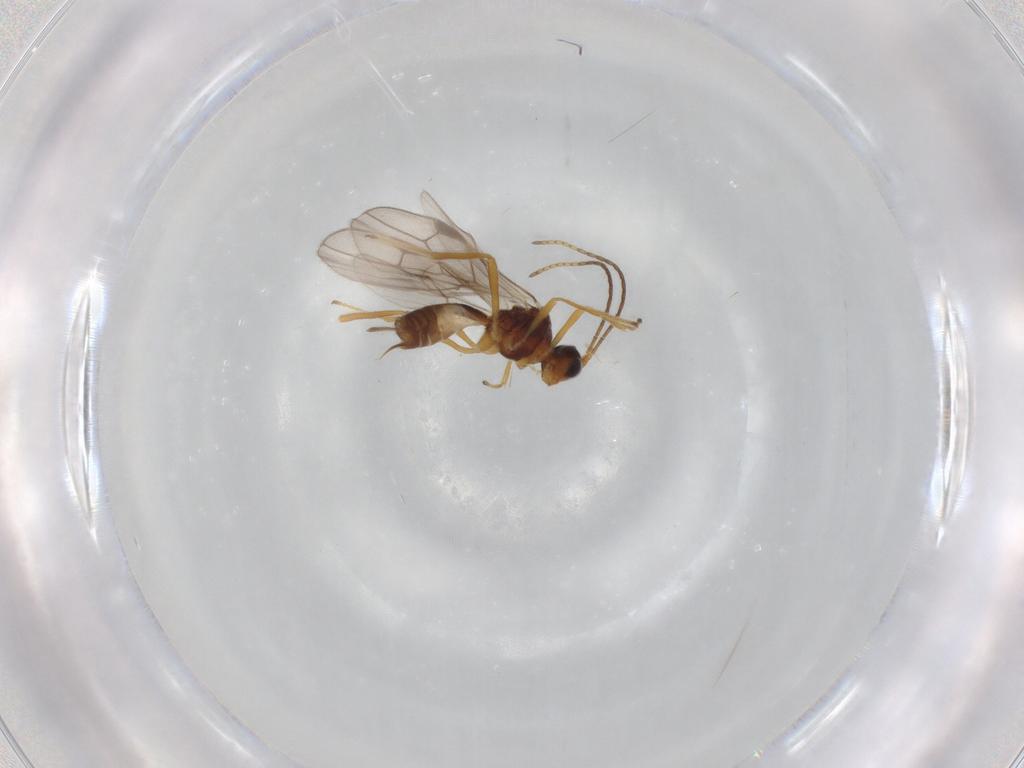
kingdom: Animalia
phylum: Arthropoda
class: Insecta
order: Hymenoptera
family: Braconidae
